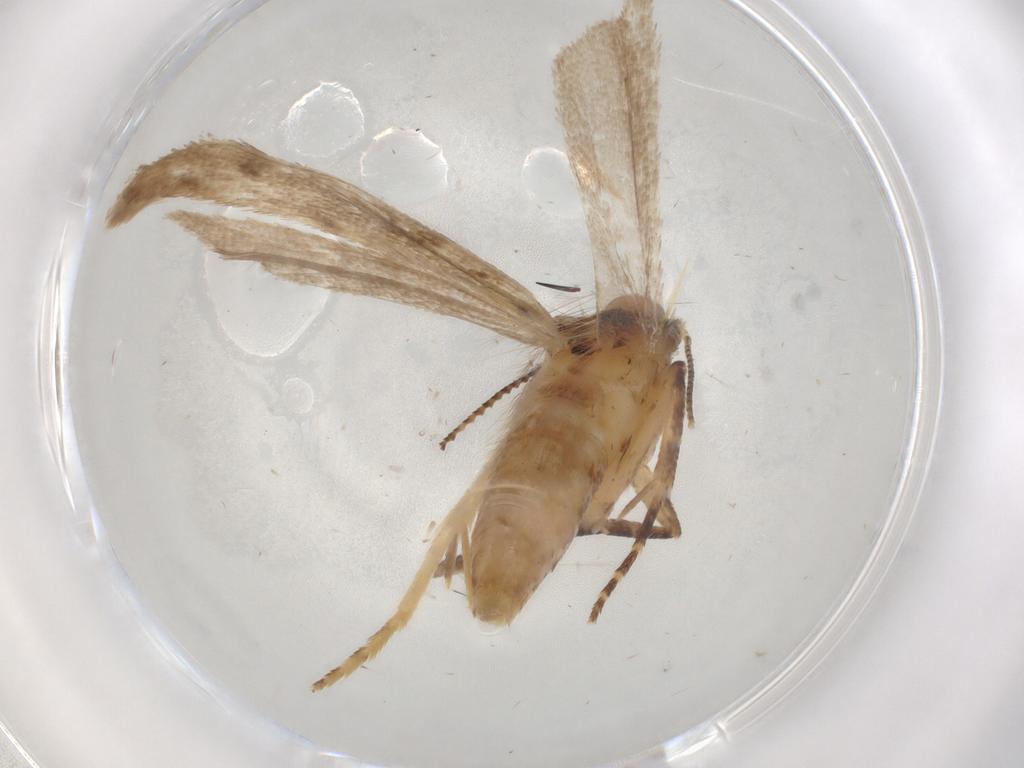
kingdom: Animalia
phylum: Arthropoda
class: Insecta
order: Lepidoptera
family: Gelechiidae
